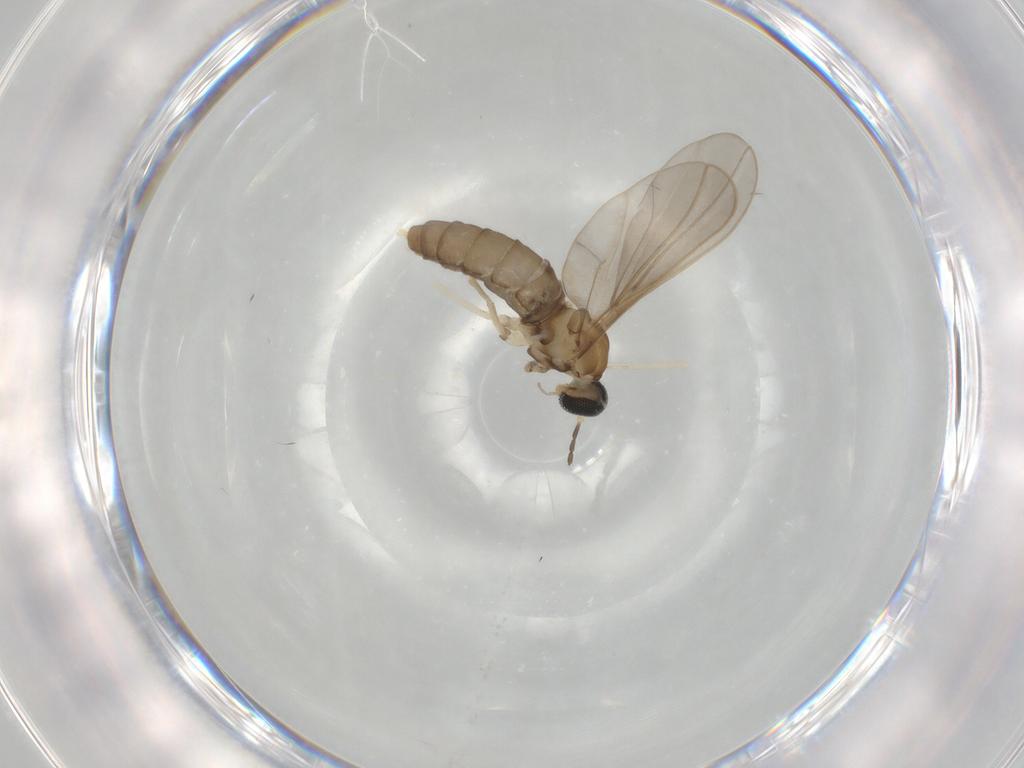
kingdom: Animalia
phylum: Arthropoda
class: Insecta
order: Diptera
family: Cecidomyiidae
